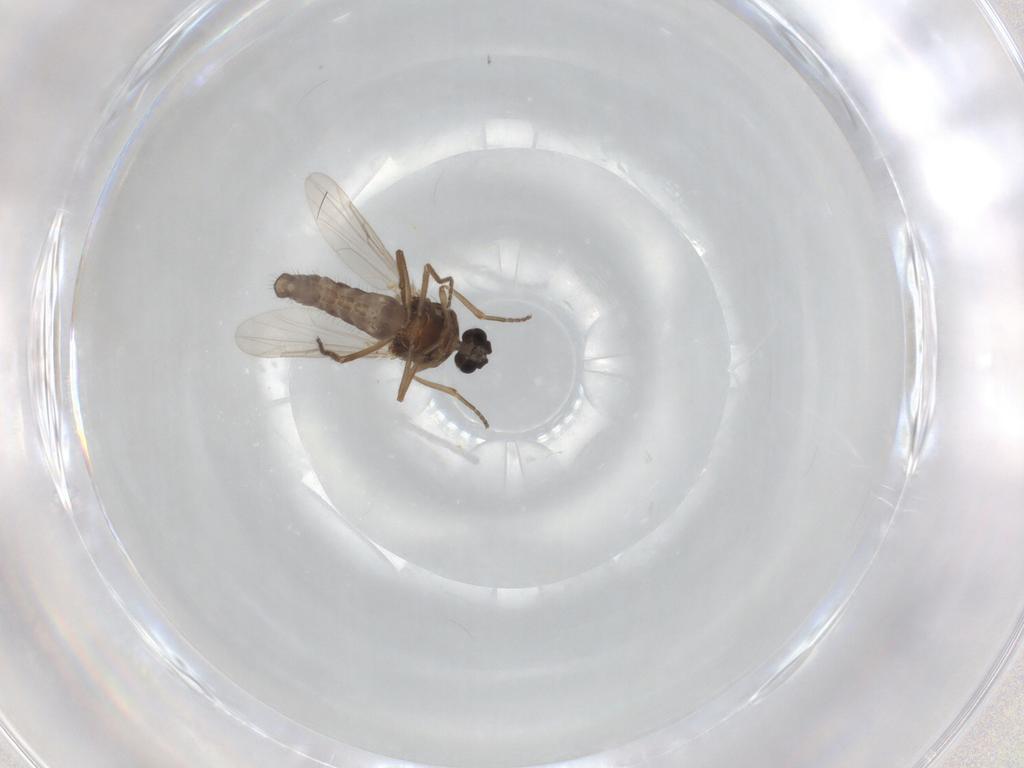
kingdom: Animalia
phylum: Arthropoda
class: Insecta
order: Diptera
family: Ceratopogonidae
